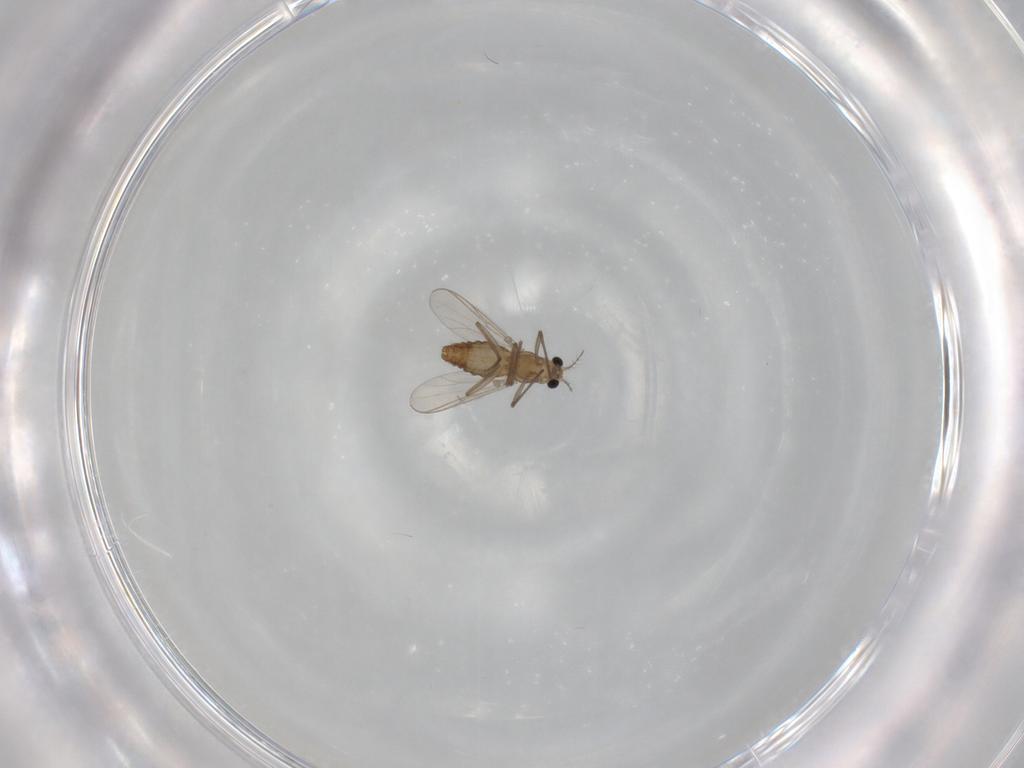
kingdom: Animalia
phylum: Arthropoda
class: Insecta
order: Diptera
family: Chironomidae
